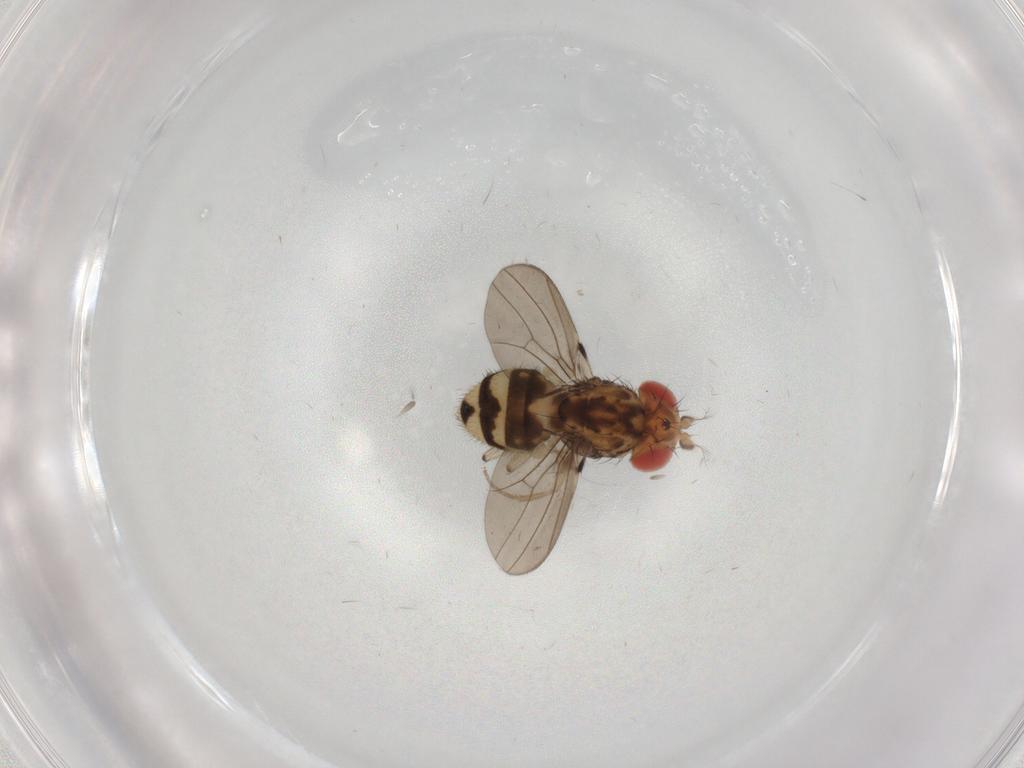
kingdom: Animalia
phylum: Arthropoda
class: Insecta
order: Diptera
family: Drosophilidae
